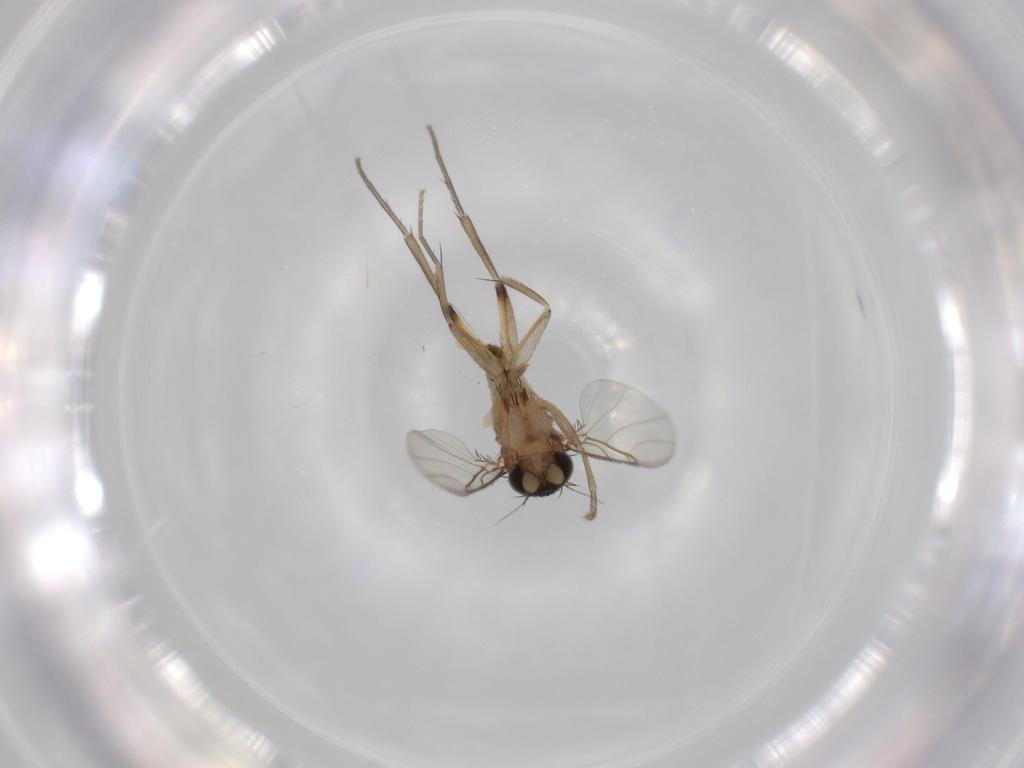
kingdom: Animalia
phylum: Arthropoda
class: Insecta
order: Diptera
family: Phoridae
